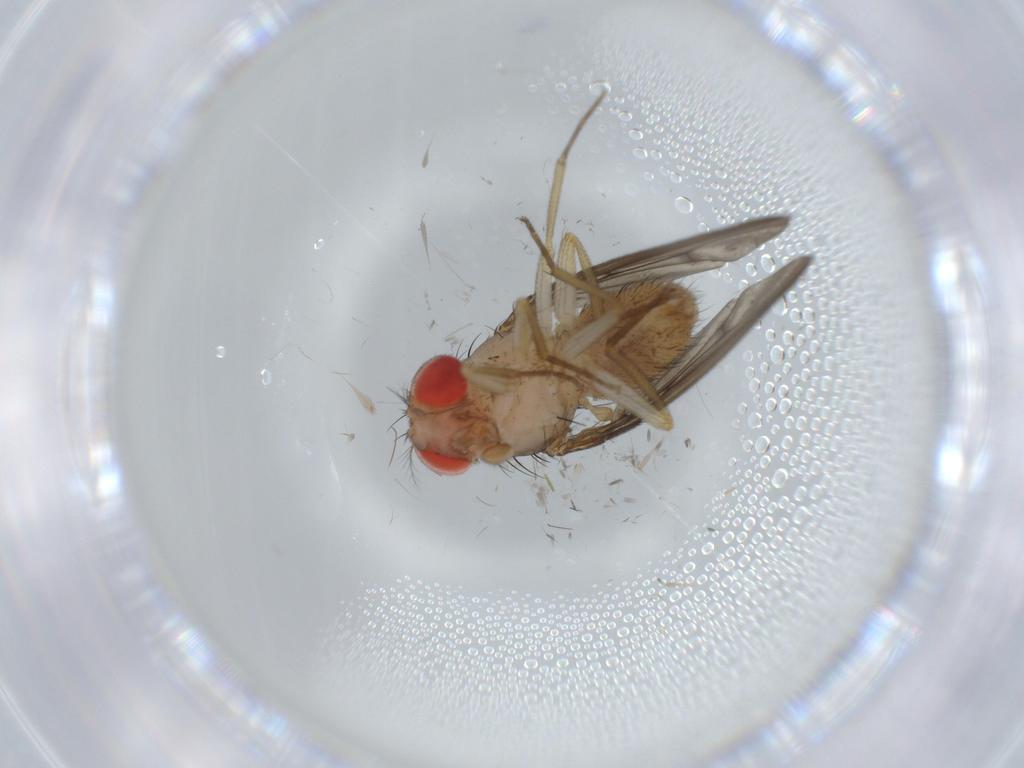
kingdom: Animalia
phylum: Arthropoda
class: Insecta
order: Diptera
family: Drosophilidae
